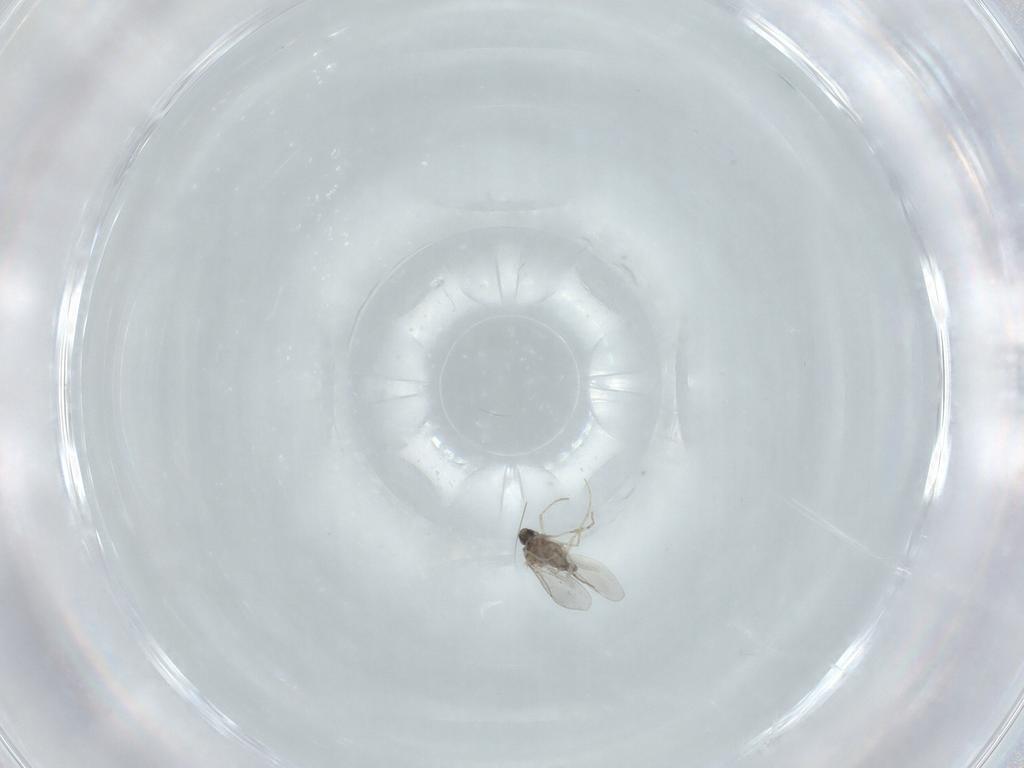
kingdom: Animalia
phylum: Arthropoda
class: Insecta
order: Diptera
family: Cecidomyiidae
